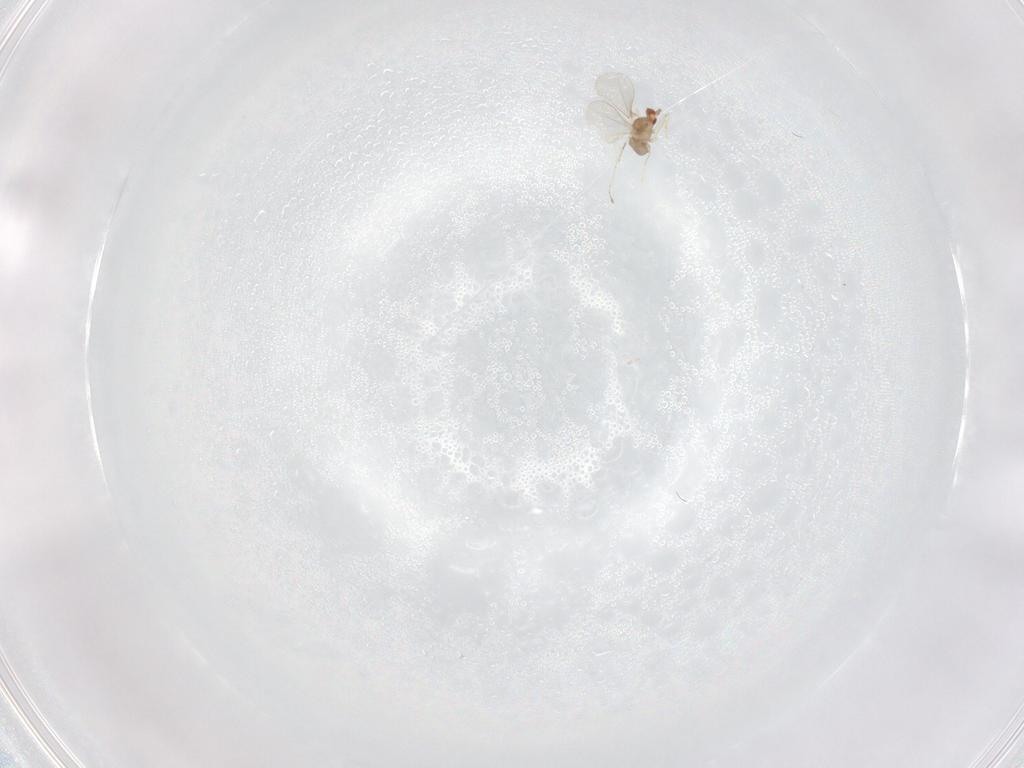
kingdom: Animalia
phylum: Arthropoda
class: Insecta
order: Diptera
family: Cecidomyiidae
